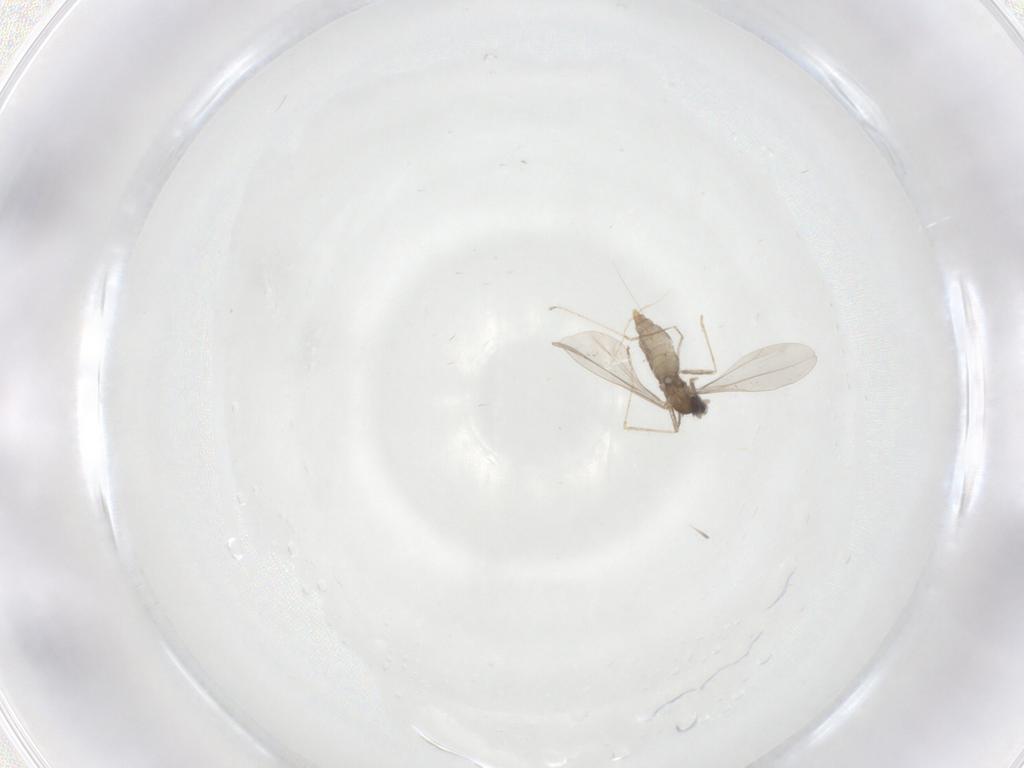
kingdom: Animalia
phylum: Arthropoda
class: Insecta
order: Diptera
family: Cecidomyiidae
